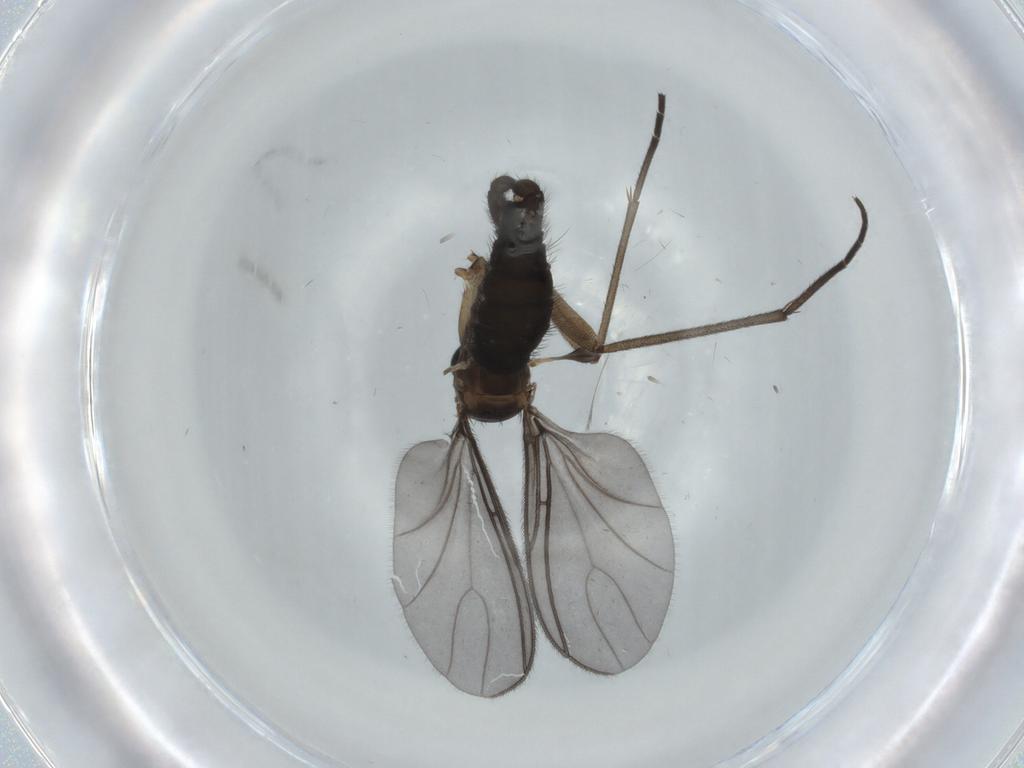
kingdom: Animalia
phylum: Arthropoda
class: Insecta
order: Diptera
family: Sciaridae
